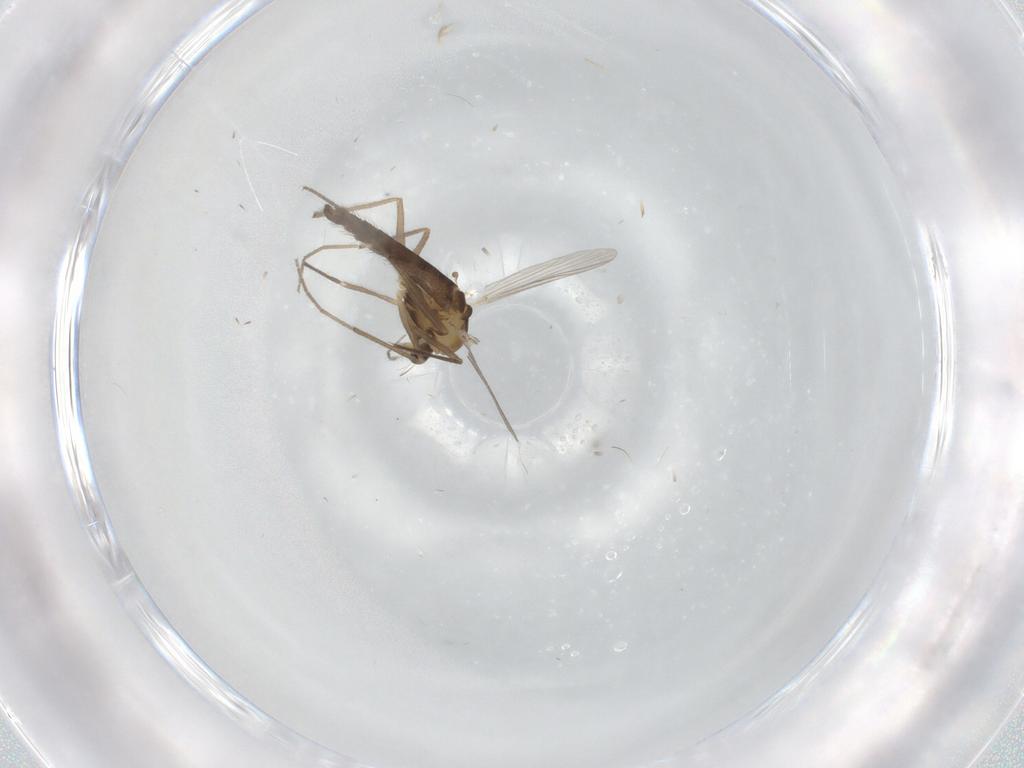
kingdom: Animalia
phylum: Arthropoda
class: Insecta
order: Diptera
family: Chironomidae
